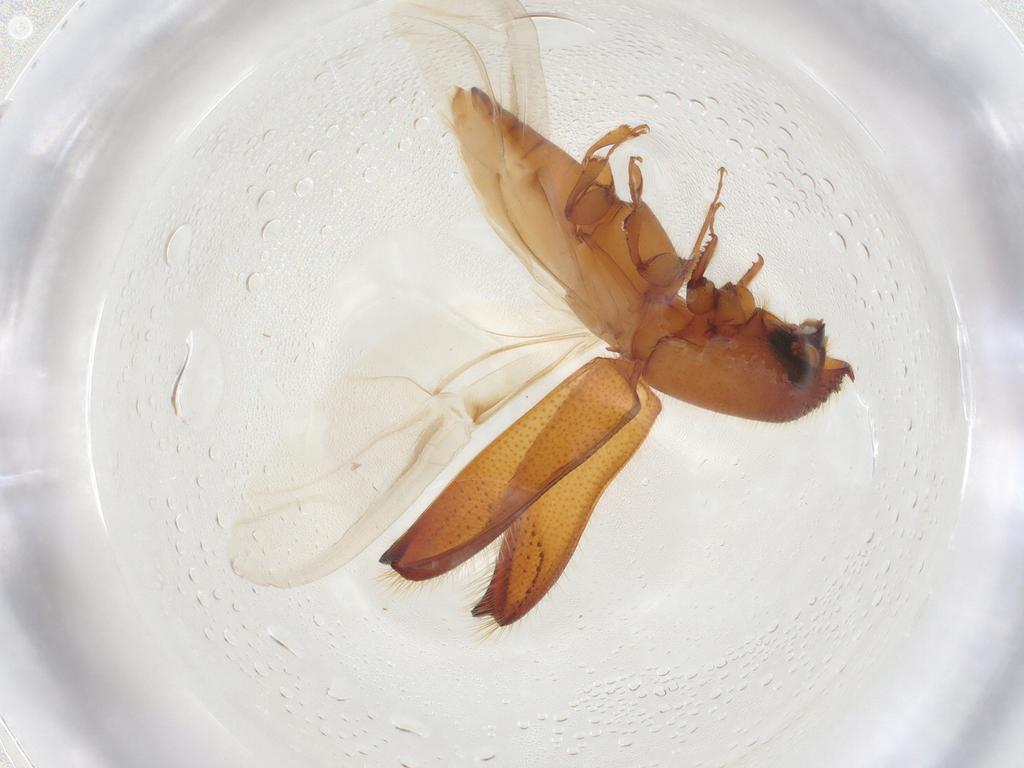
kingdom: Animalia
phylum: Arthropoda
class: Insecta
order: Coleoptera
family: Curculionidae
